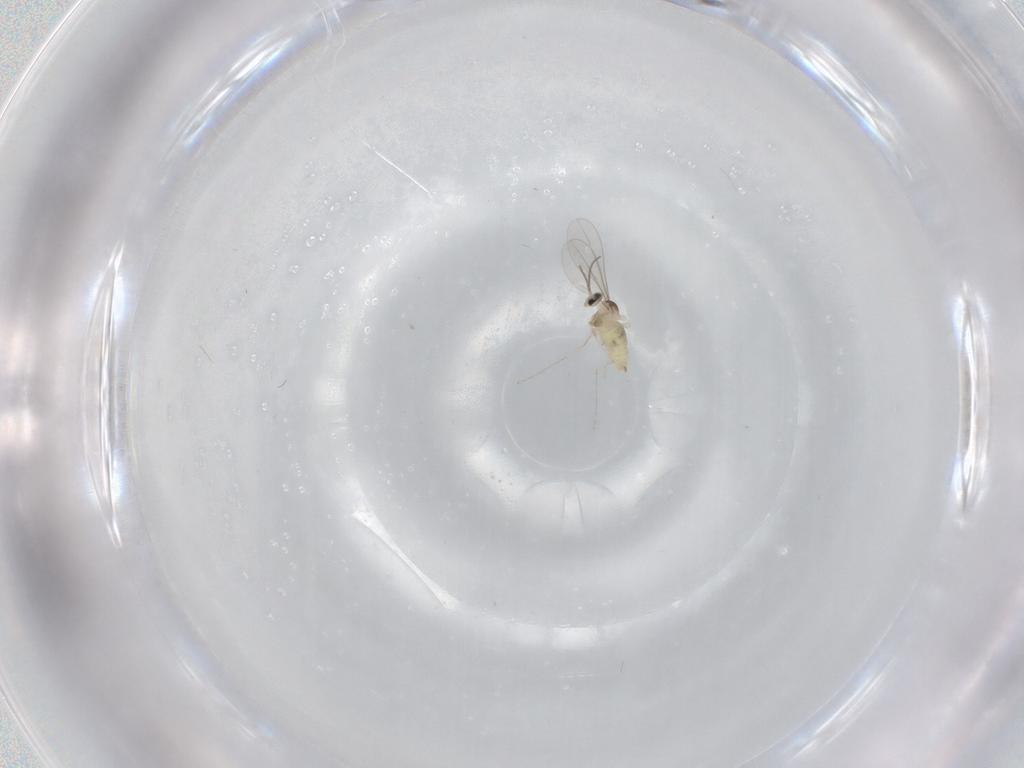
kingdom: Animalia
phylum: Arthropoda
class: Insecta
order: Diptera
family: Cecidomyiidae
